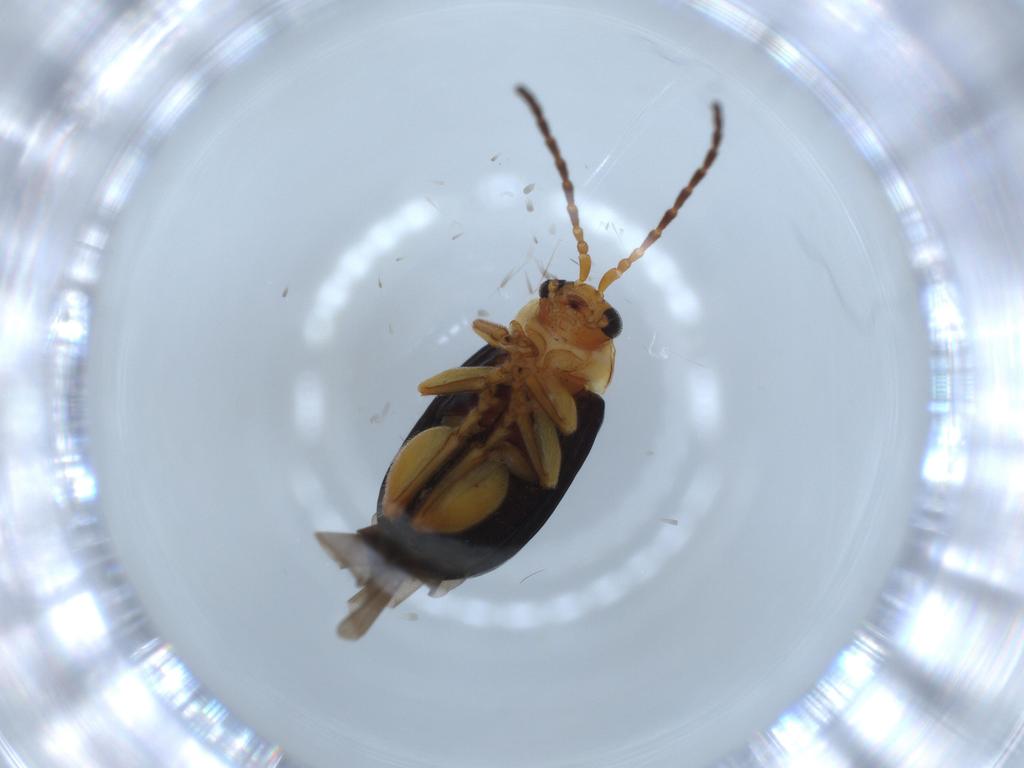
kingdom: Animalia
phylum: Arthropoda
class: Insecta
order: Coleoptera
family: Chrysomelidae
